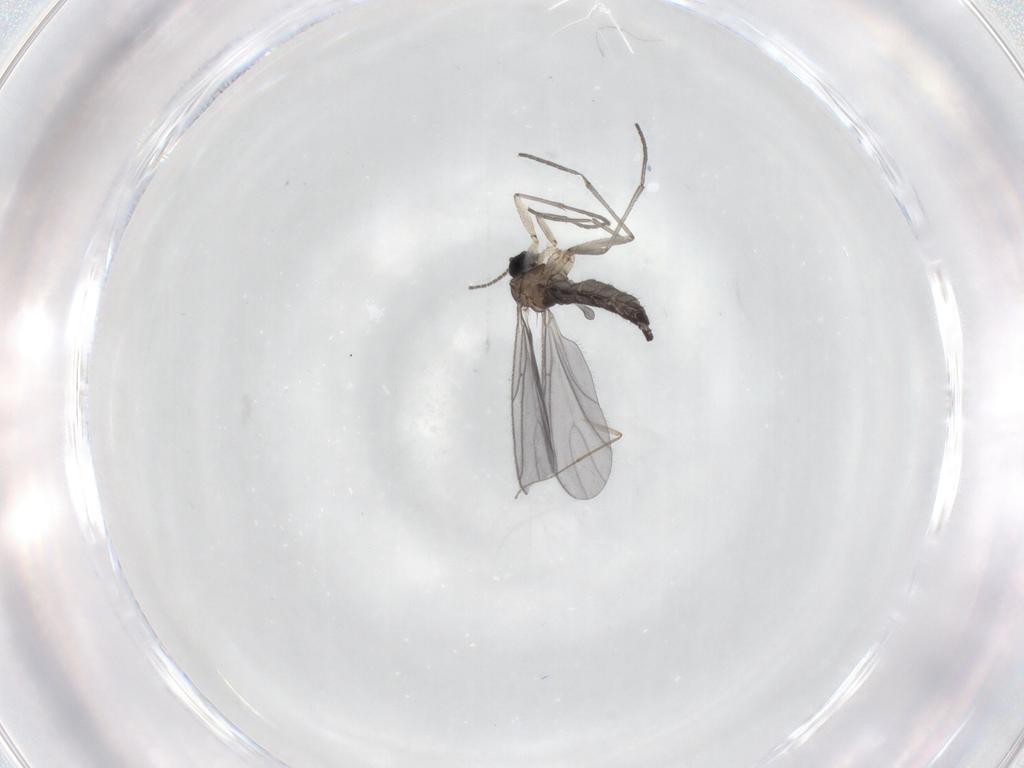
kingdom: Animalia
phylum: Arthropoda
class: Insecta
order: Diptera
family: Sciaridae
